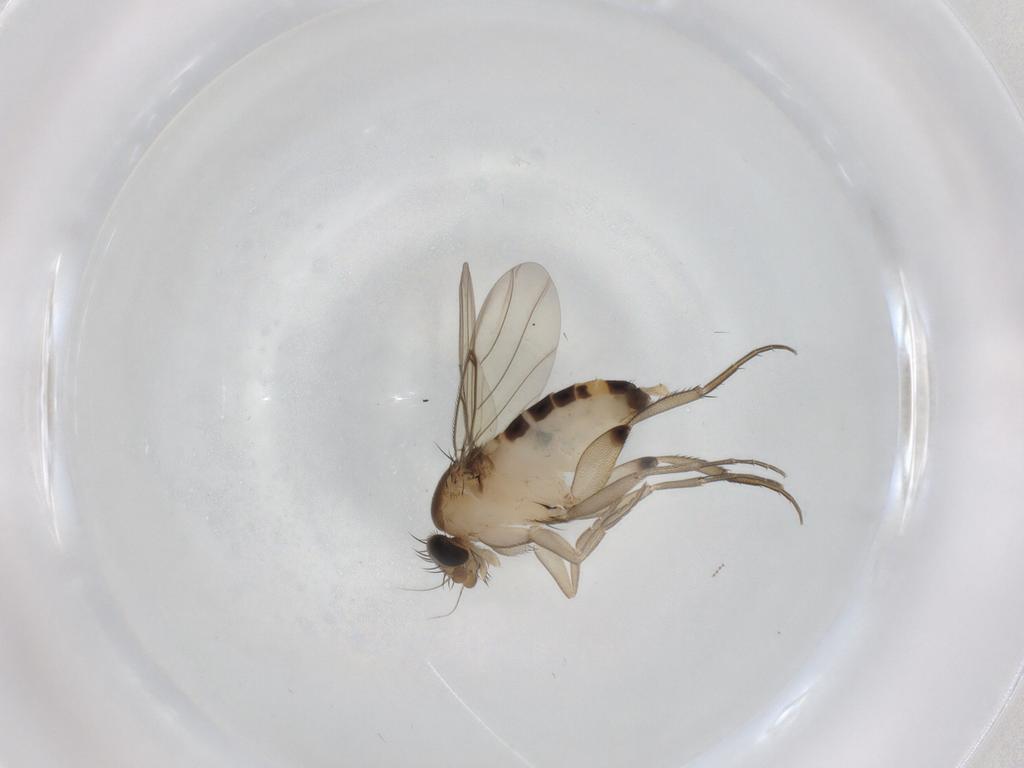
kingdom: Animalia
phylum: Arthropoda
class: Insecta
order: Diptera
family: Phoridae
